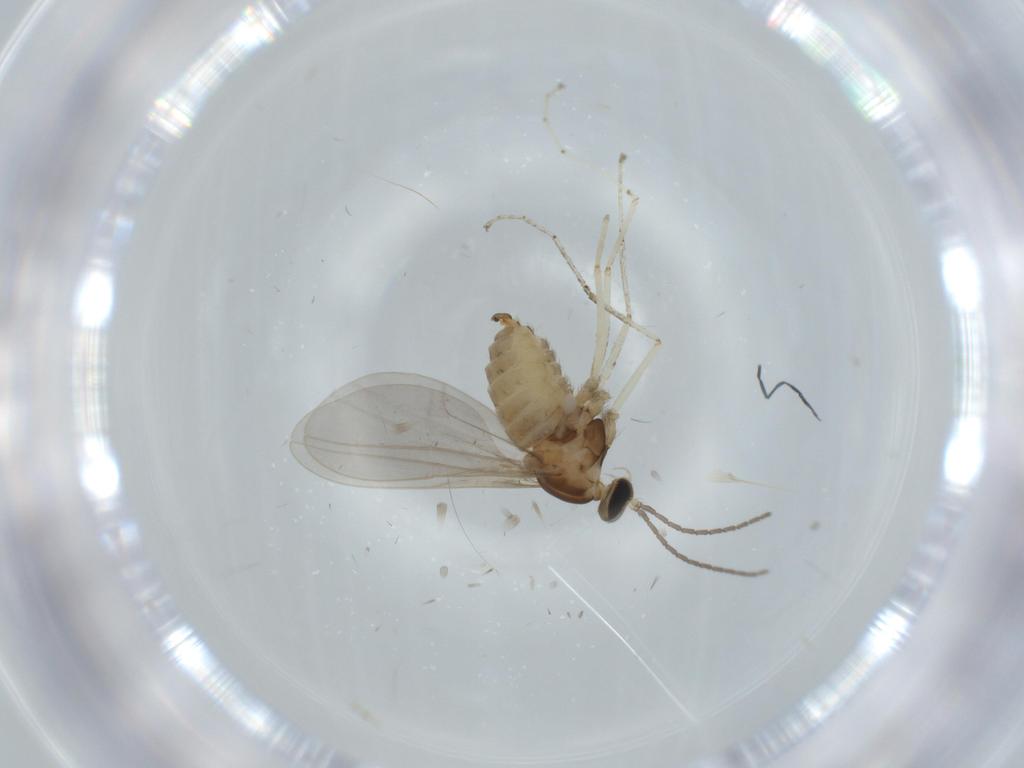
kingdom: Animalia
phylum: Arthropoda
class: Insecta
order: Diptera
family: Cecidomyiidae
